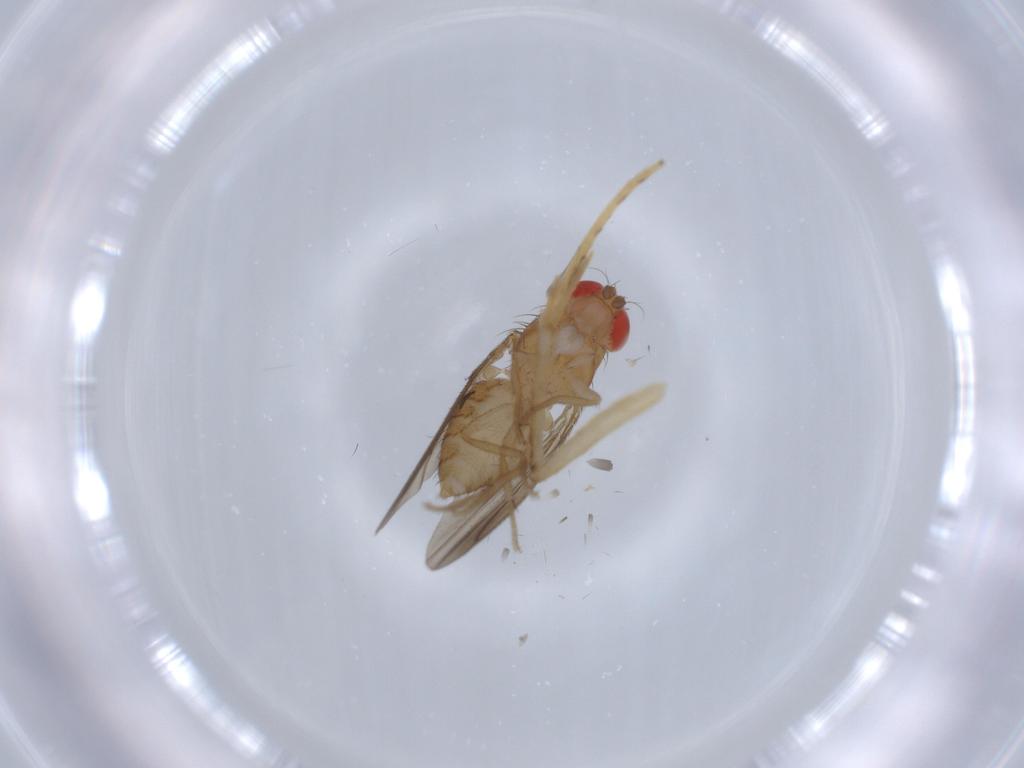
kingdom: Animalia
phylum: Arthropoda
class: Insecta
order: Diptera
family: Drosophilidae
